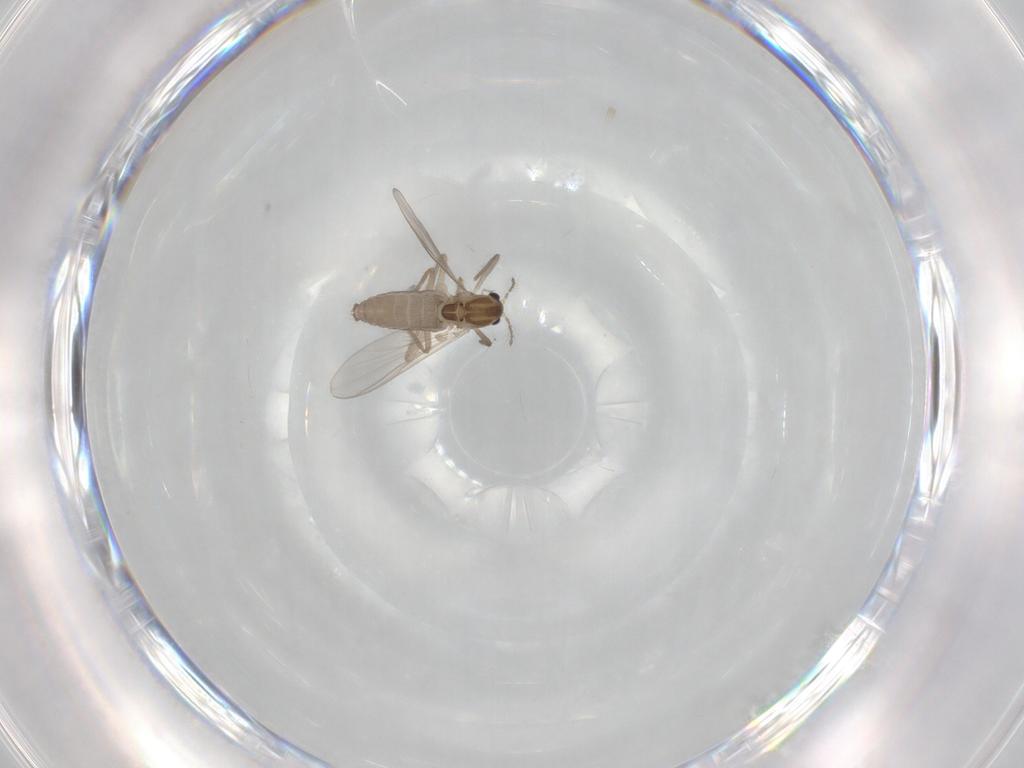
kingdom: Animalia
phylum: Arthropoda
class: Insecta
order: Diptera
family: Chironomidae
